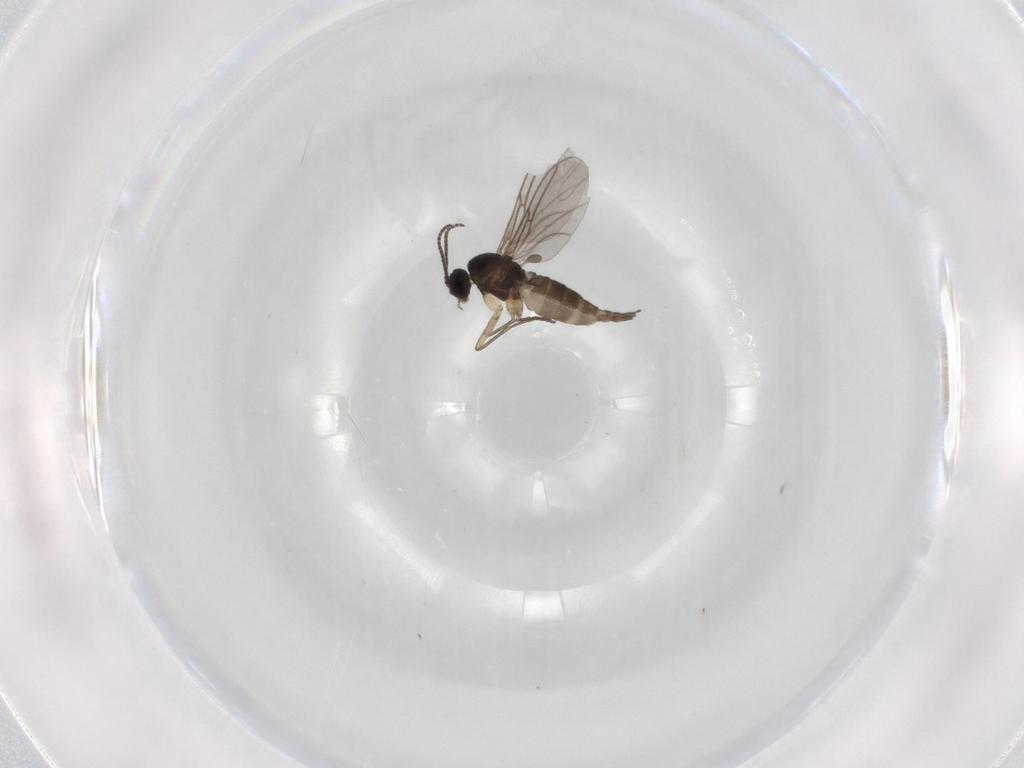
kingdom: Animalia
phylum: Arthropoda
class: Insecta
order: Diptera
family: Sciaridae
